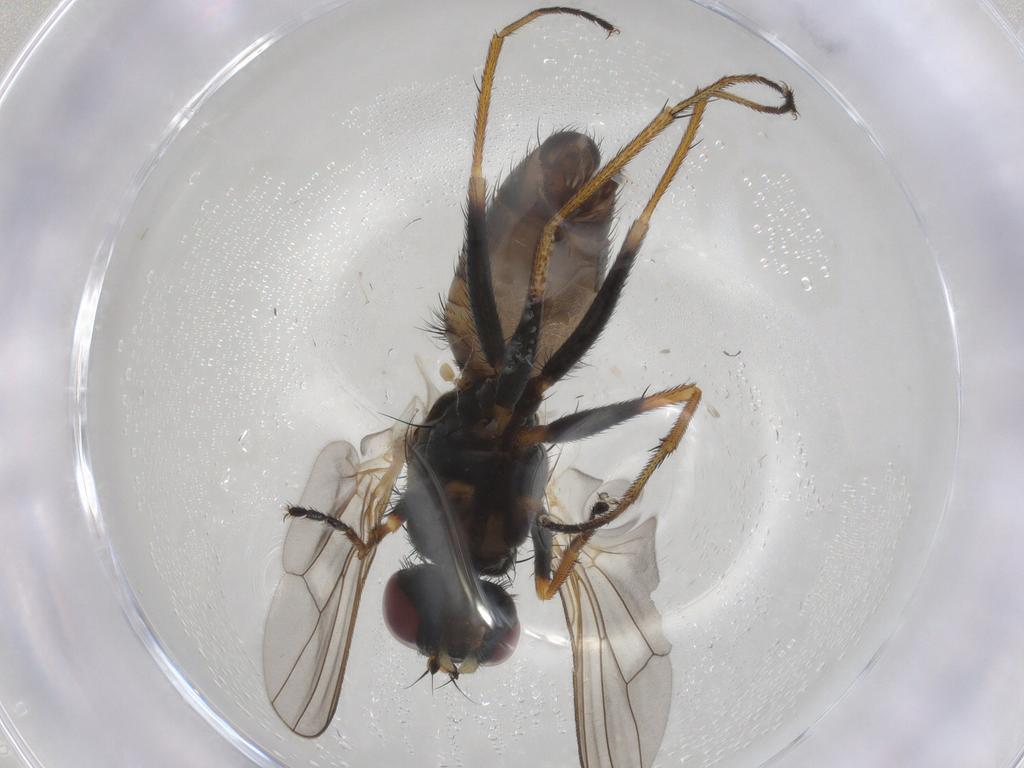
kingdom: Animalia
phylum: Arthropoda
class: Insecta
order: Diptera
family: Muscidae
